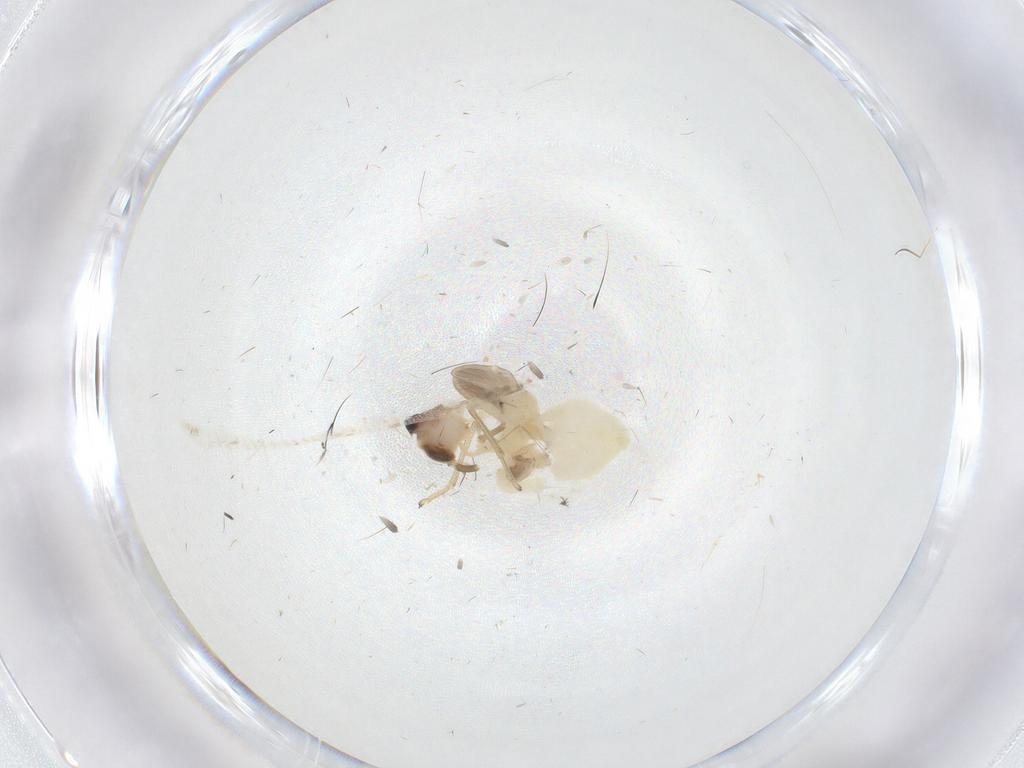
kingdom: Animalia
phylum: Arthropoda
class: Insecta
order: Psocodea
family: Caeciliusidae
